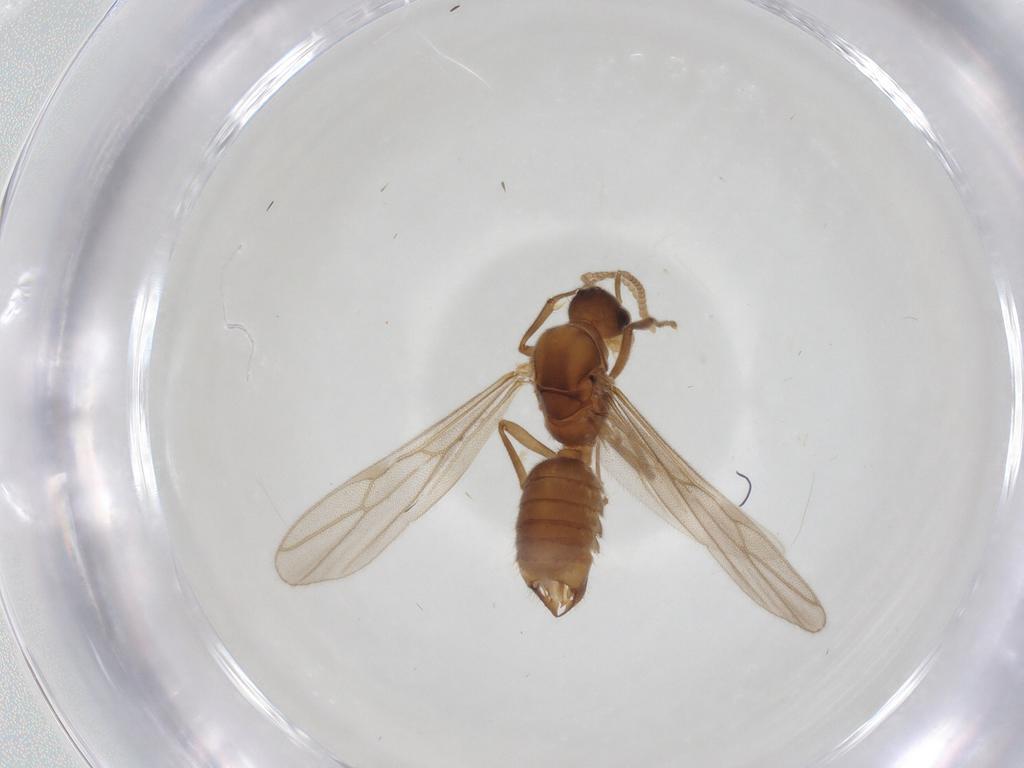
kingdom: Animalia
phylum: Arthropoda
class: Insecta
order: Hymenoptera
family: Formicidae
